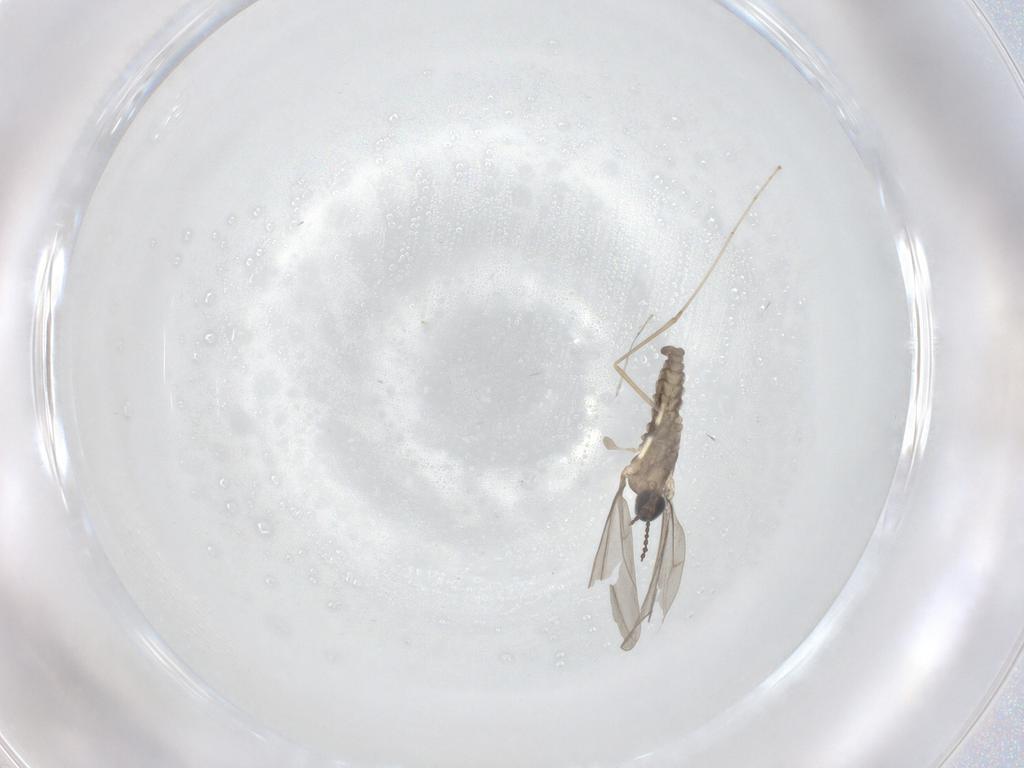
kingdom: Animalia
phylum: Arthropoda
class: Insecta
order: Diptera
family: Cecidomyiidae
